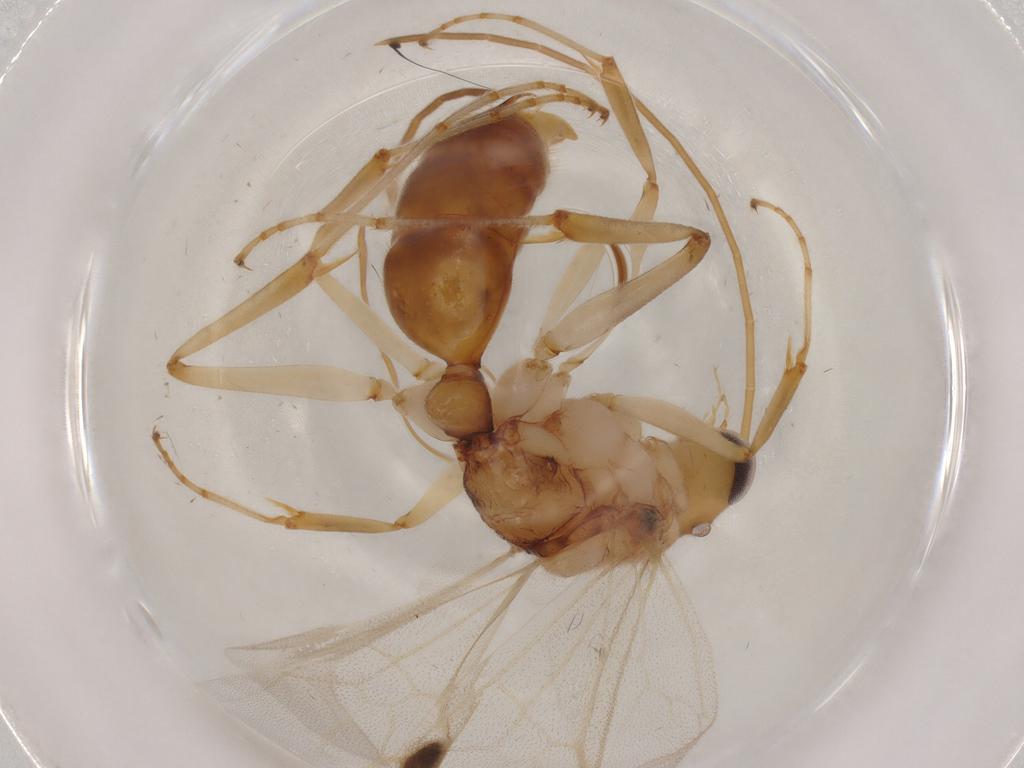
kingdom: Animalia
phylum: Arthropoda
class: Insecta
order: Hymenoptera
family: Formicidae
